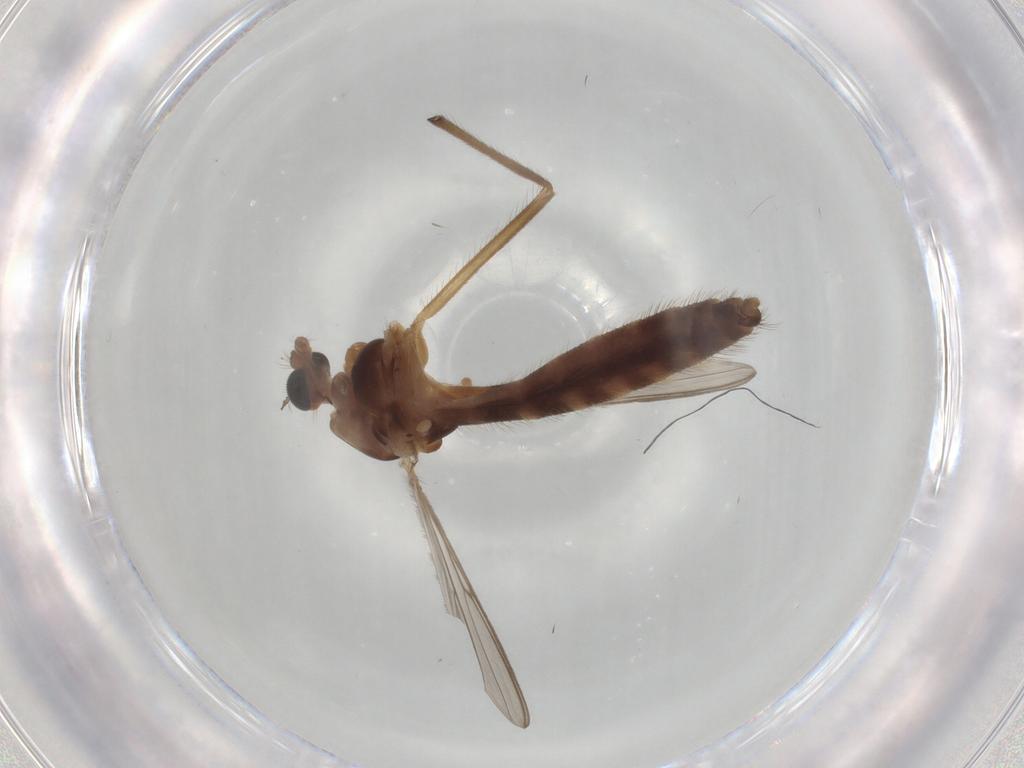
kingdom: Animalia
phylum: Arthropoda
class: Insecta
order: Diptera
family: Chironomidae
